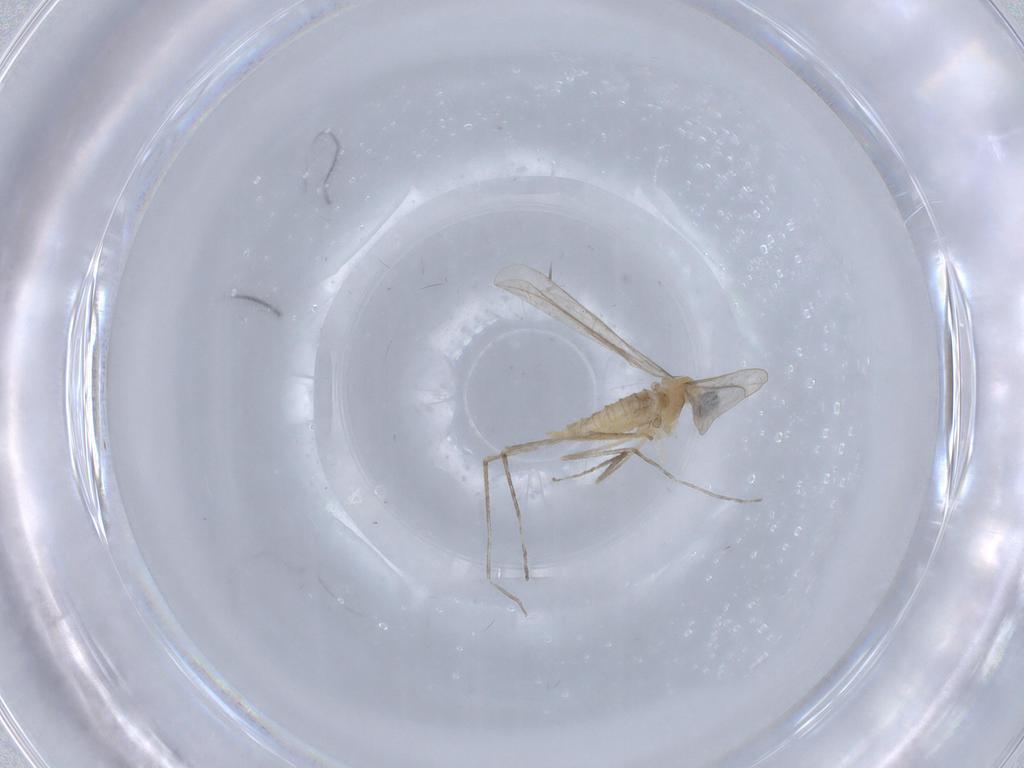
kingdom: Animalia
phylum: Arthropoda
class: Insecta
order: Diptera
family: Cecidomyiidae
